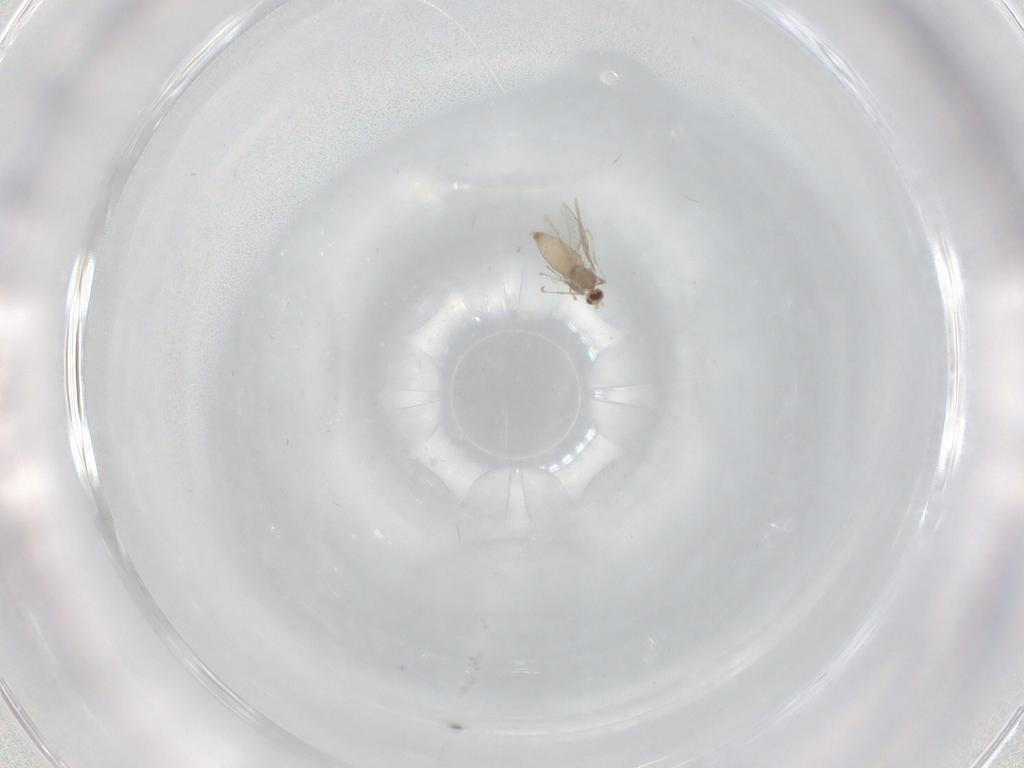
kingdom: Animalia
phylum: Arthropoda
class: Insecta
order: Diptera
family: Cecidomyiidae
